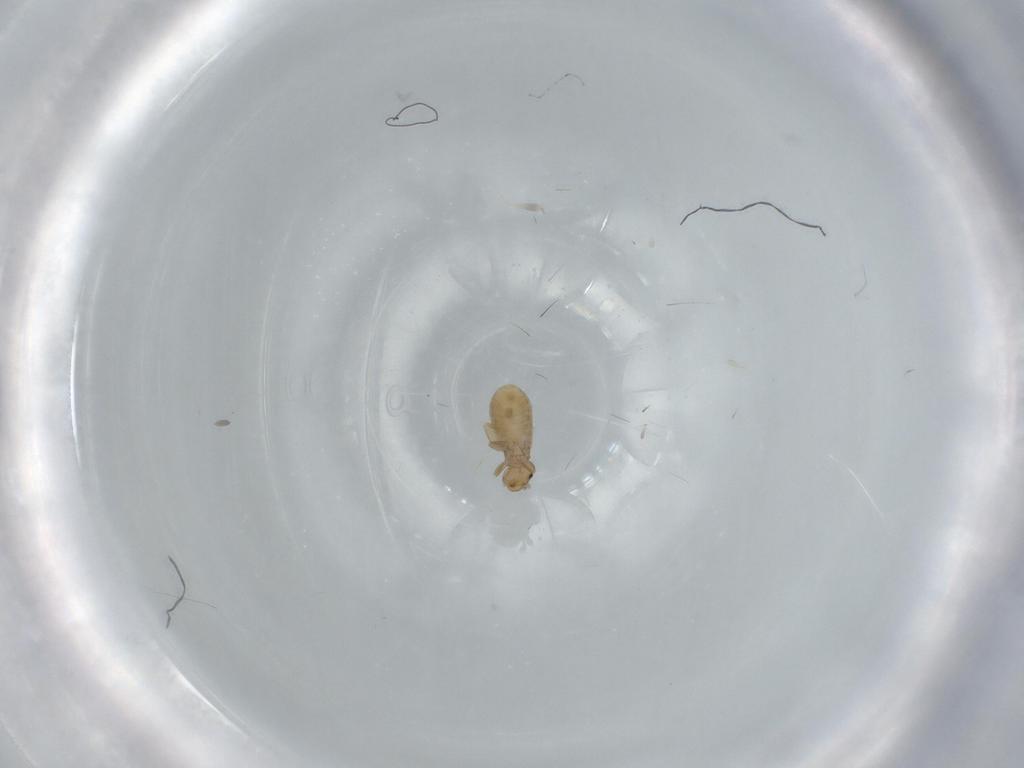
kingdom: Animalia
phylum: Arthropoda
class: Insecta
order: Psocodea
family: Liposcelididae
